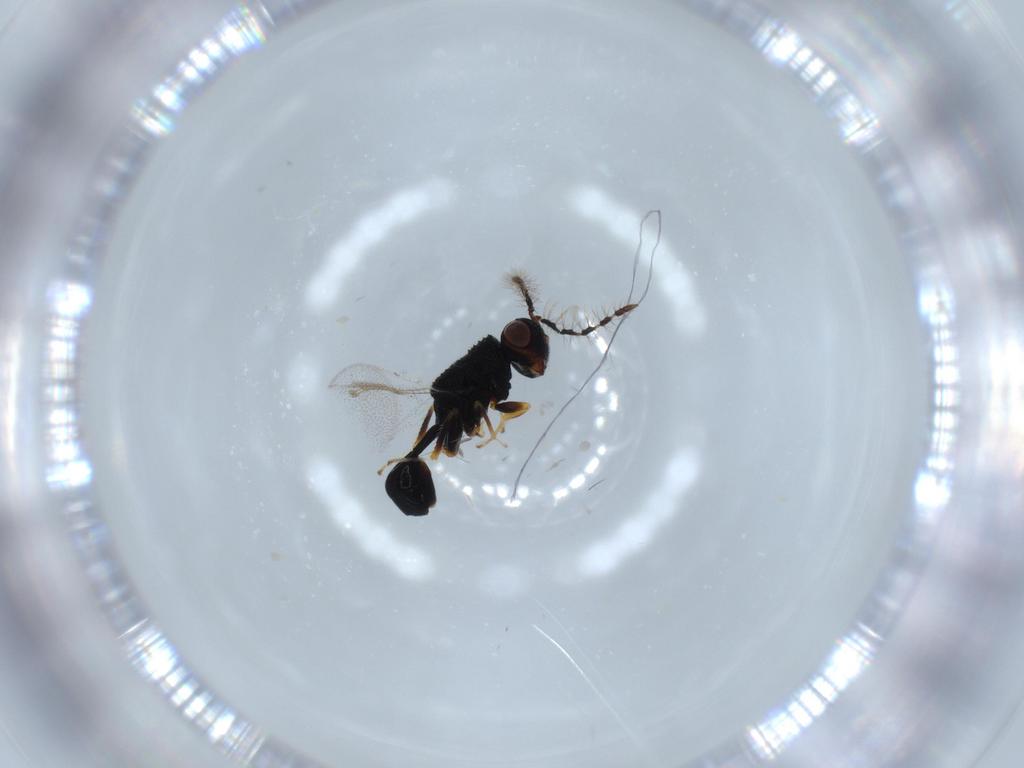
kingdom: Animalia
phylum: Arthropoda
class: Insecta
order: Hymenoptera
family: Eurytomidae
